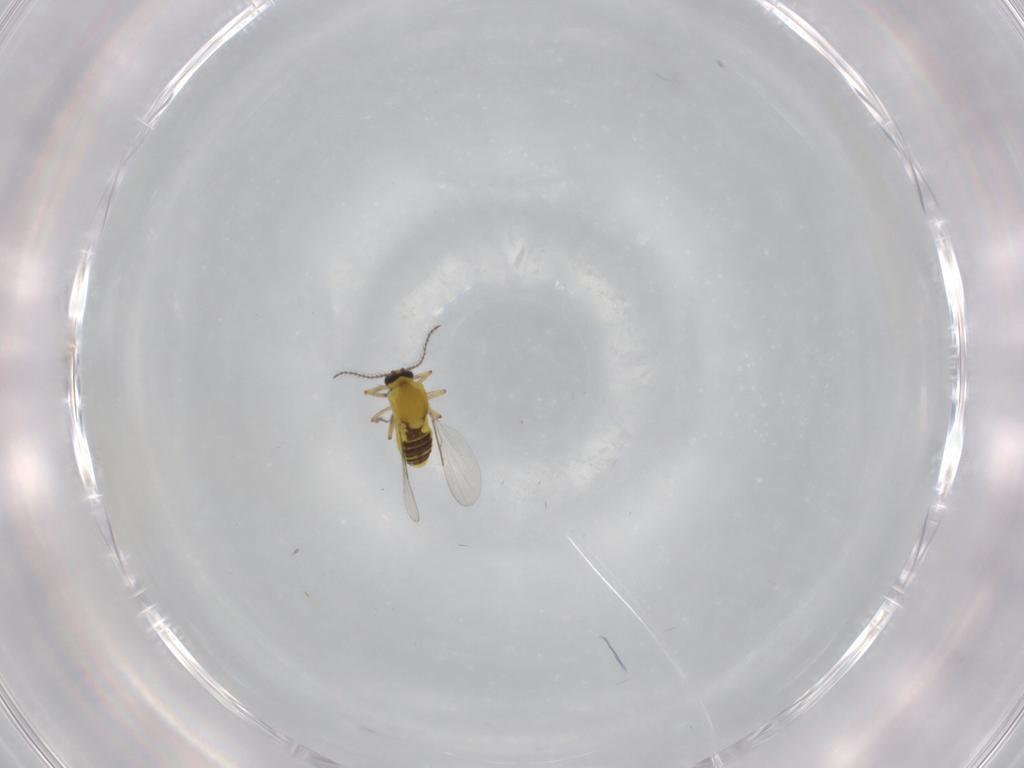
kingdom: Animalia
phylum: Arthropoda
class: Insecta
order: Diptera
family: Ceratopogonidae
